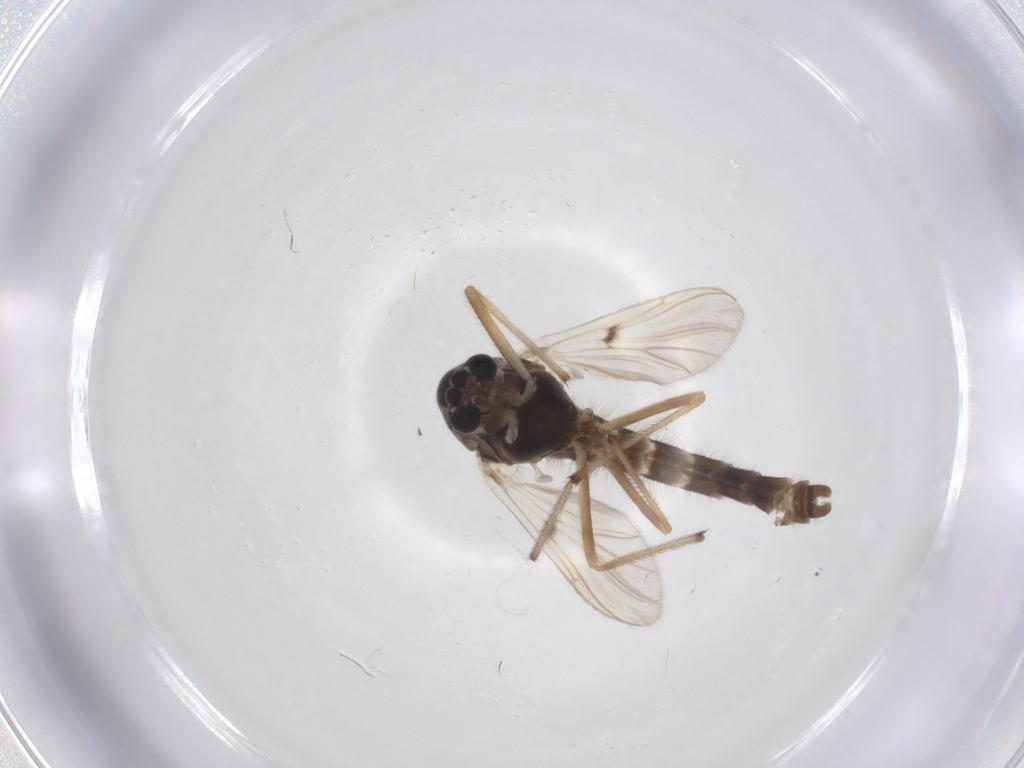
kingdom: Animalia
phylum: Arthropoda
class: Insecta
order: Diptera
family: Chironomidae
